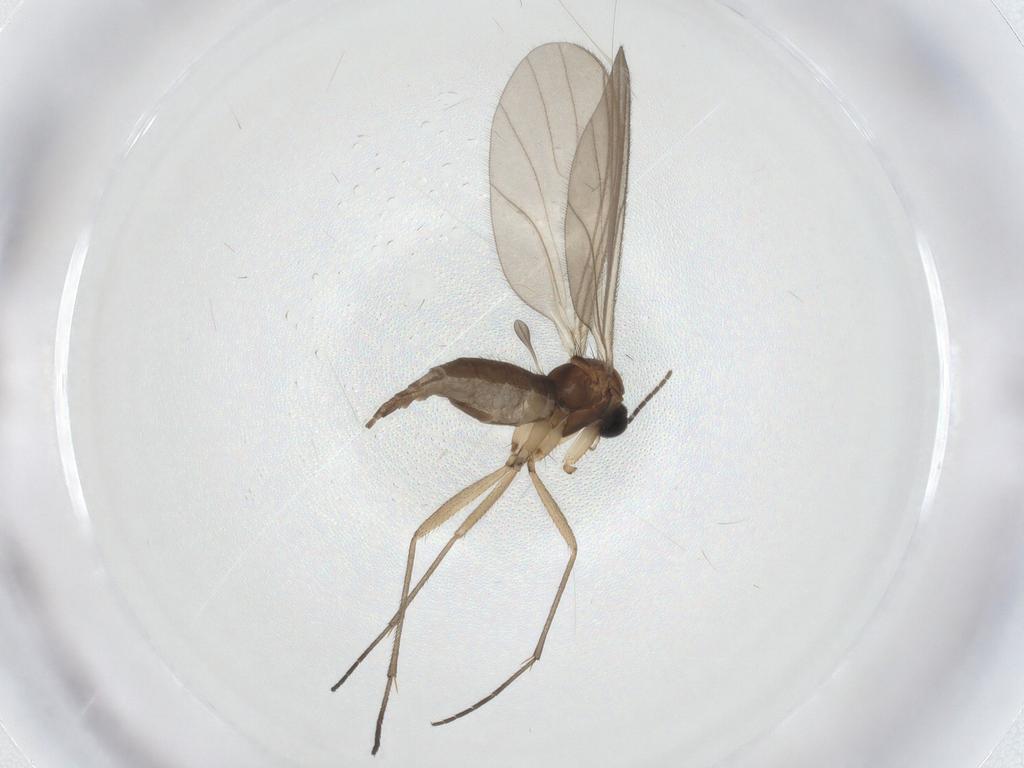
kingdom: Animalia
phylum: Arthropoda
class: Insecta
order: Diptera
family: Sciaridae
